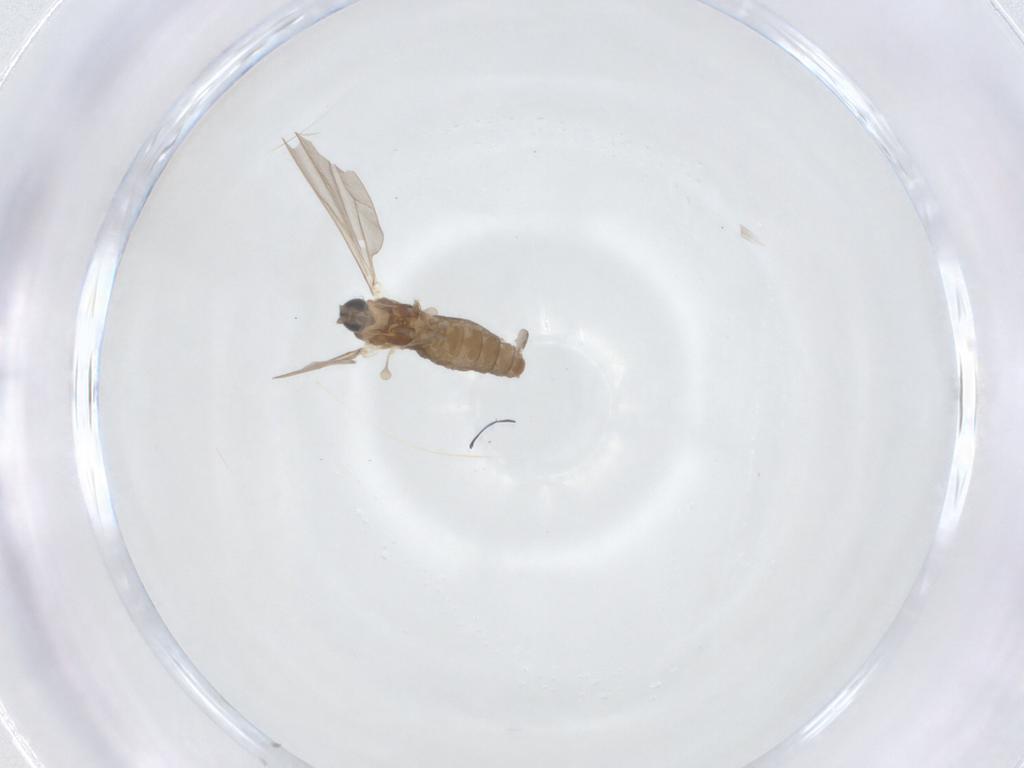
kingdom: Animalia
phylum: Arthropoda
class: Insecta
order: Diptera
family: Cecidomyiidae
